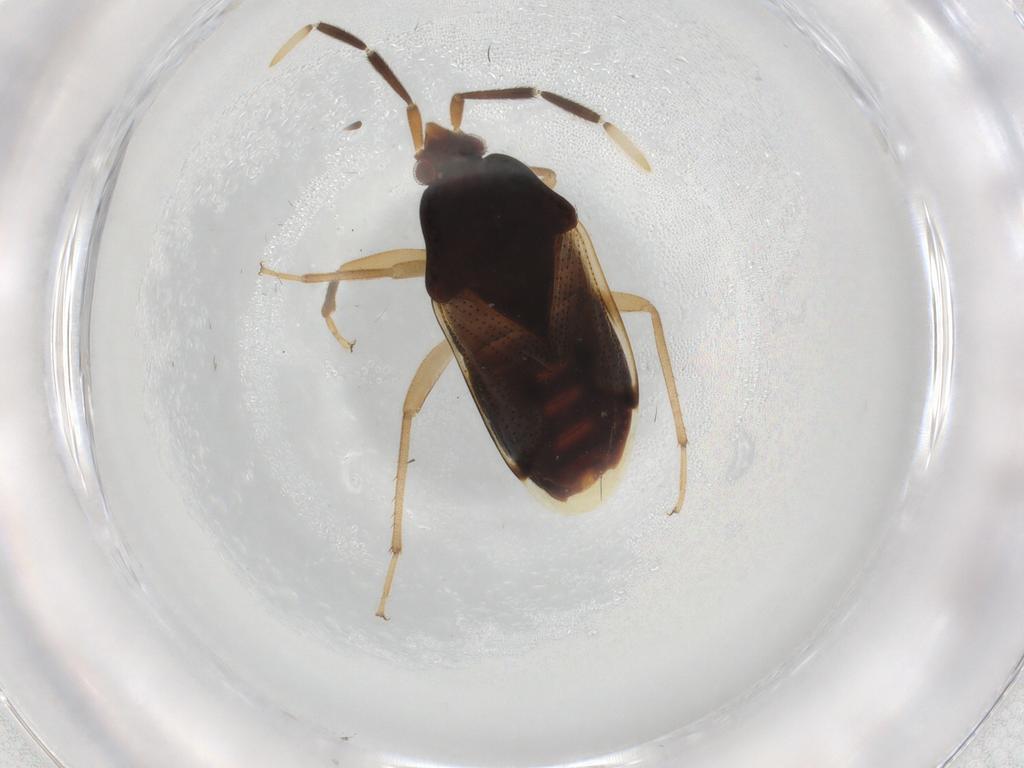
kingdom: Animalia
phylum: Arthropoda
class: Insecta
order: Hemiptera
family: Rhyparochromidae
